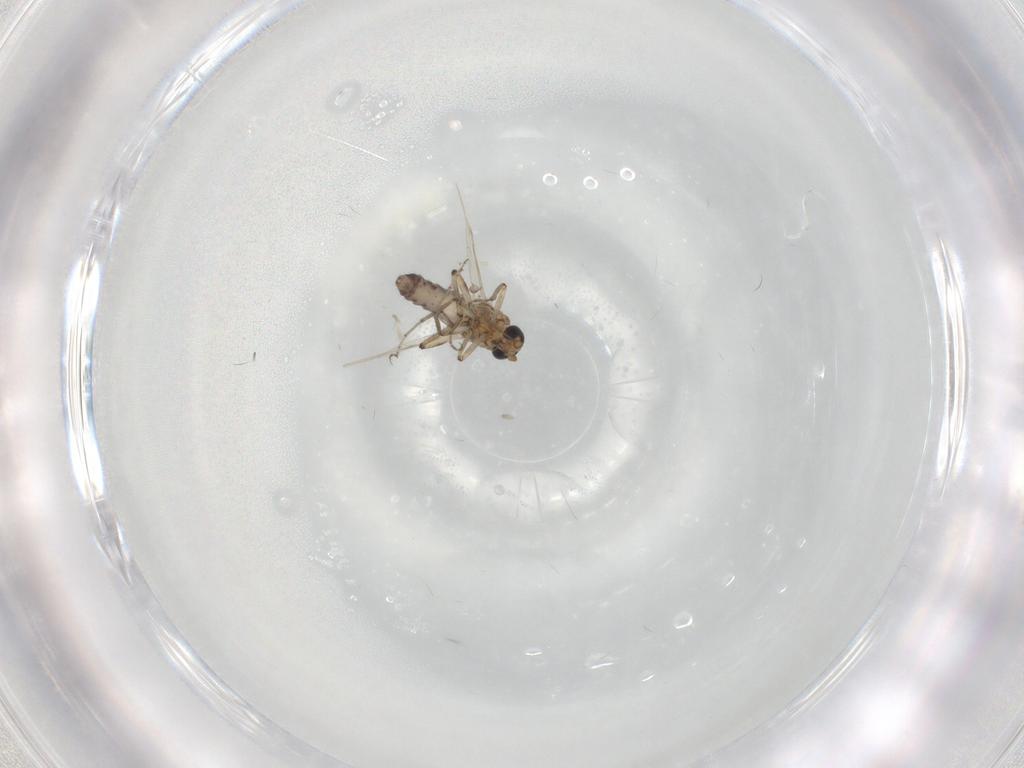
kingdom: Animalia
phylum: Arthropoda
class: Insecta
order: Diptera
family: Ceratopogonidae
